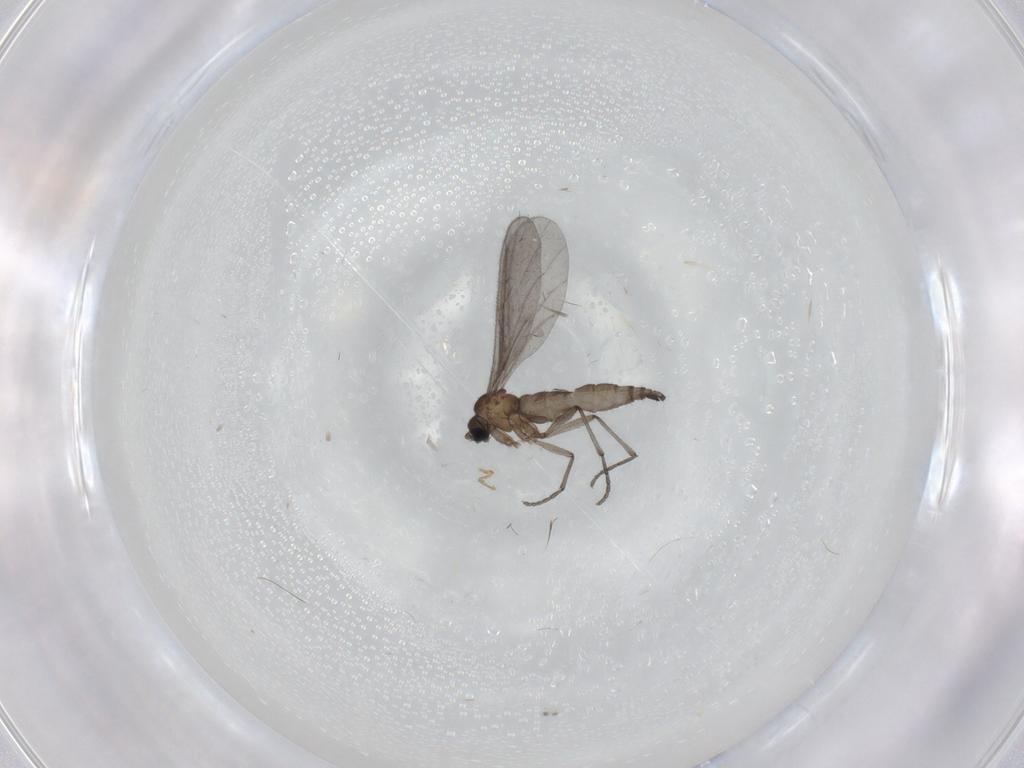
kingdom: Animalia
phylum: Arthropoda
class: Insecta
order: Diptera
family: Sciaridae
